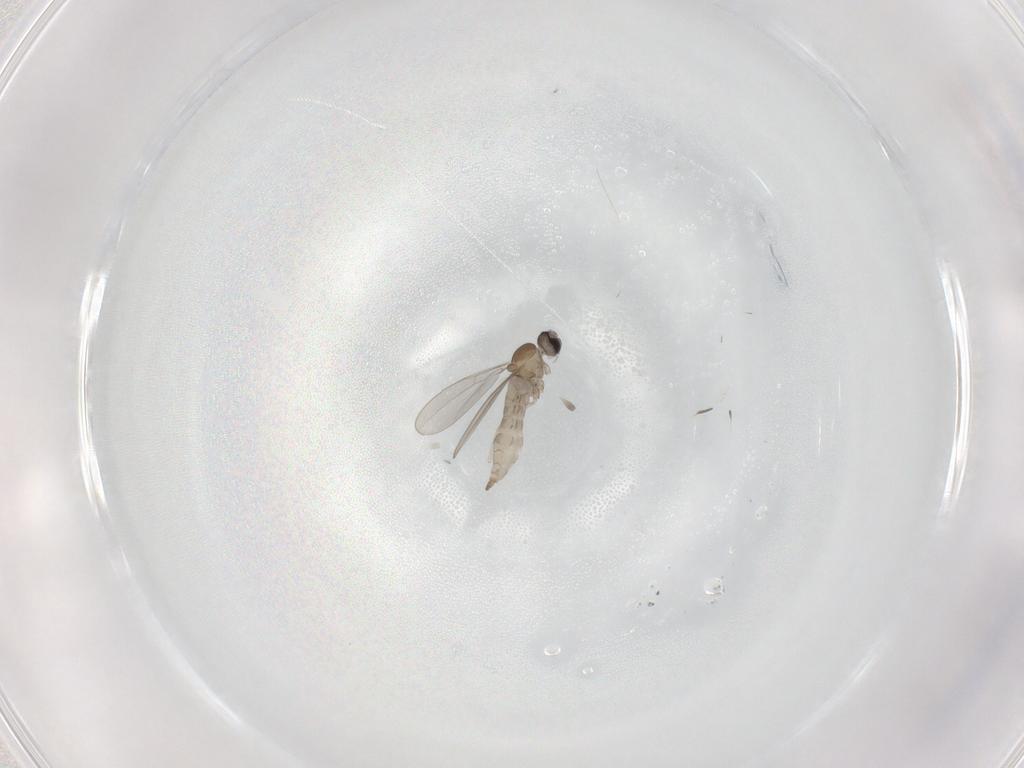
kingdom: Animalia
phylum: Arthropoda
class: Insecta
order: Diptera
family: Cecidomyiidae
